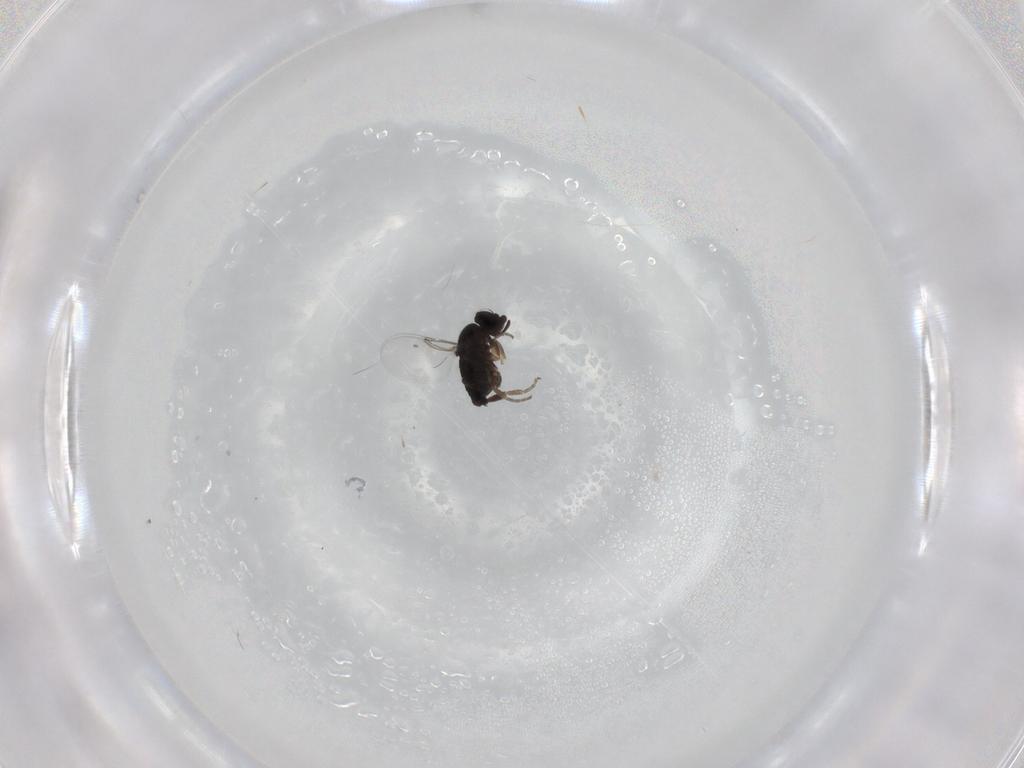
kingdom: Animalia
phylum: Arthropoda
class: Insecta
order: Diptera
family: Phoridae
